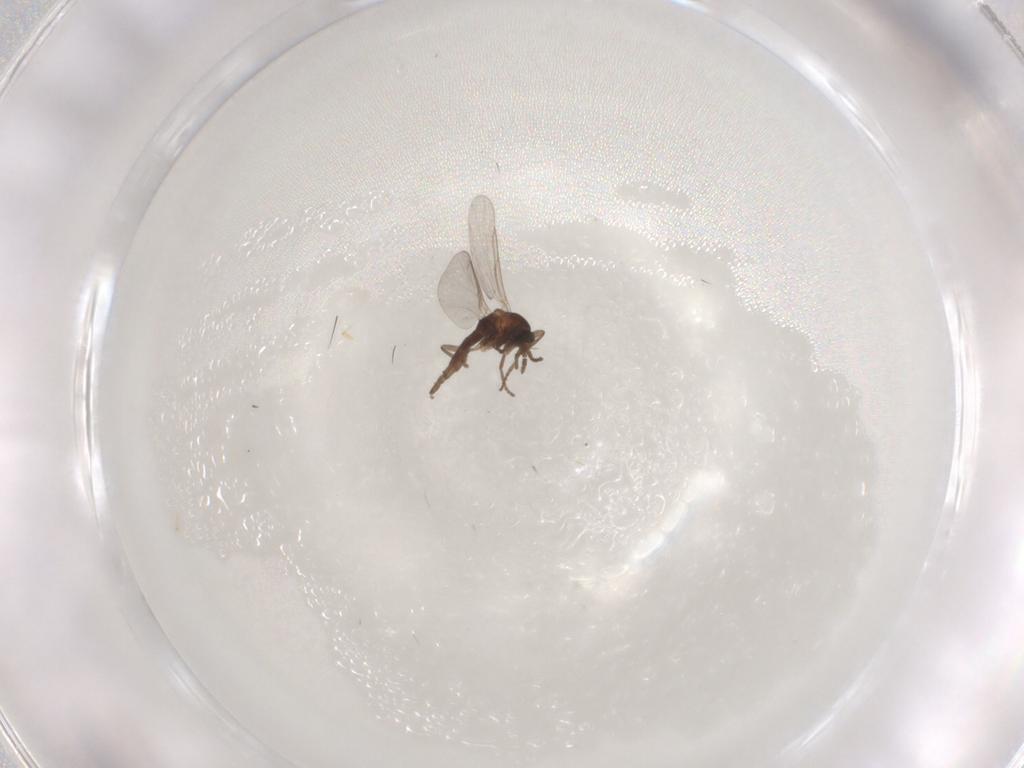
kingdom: Animalia
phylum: Arthropoda
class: Insecta
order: Diptera
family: Cecidomyiidae
